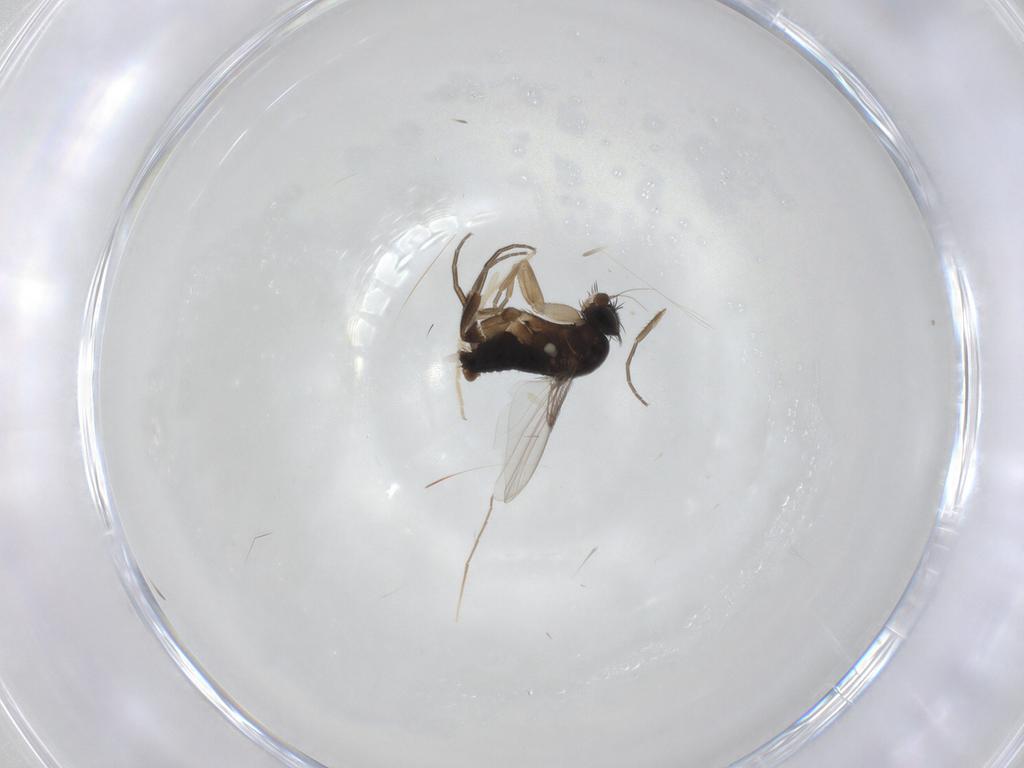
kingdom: Animalia
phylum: Arthropoda
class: Insecta
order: Diptera
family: Phoridae
